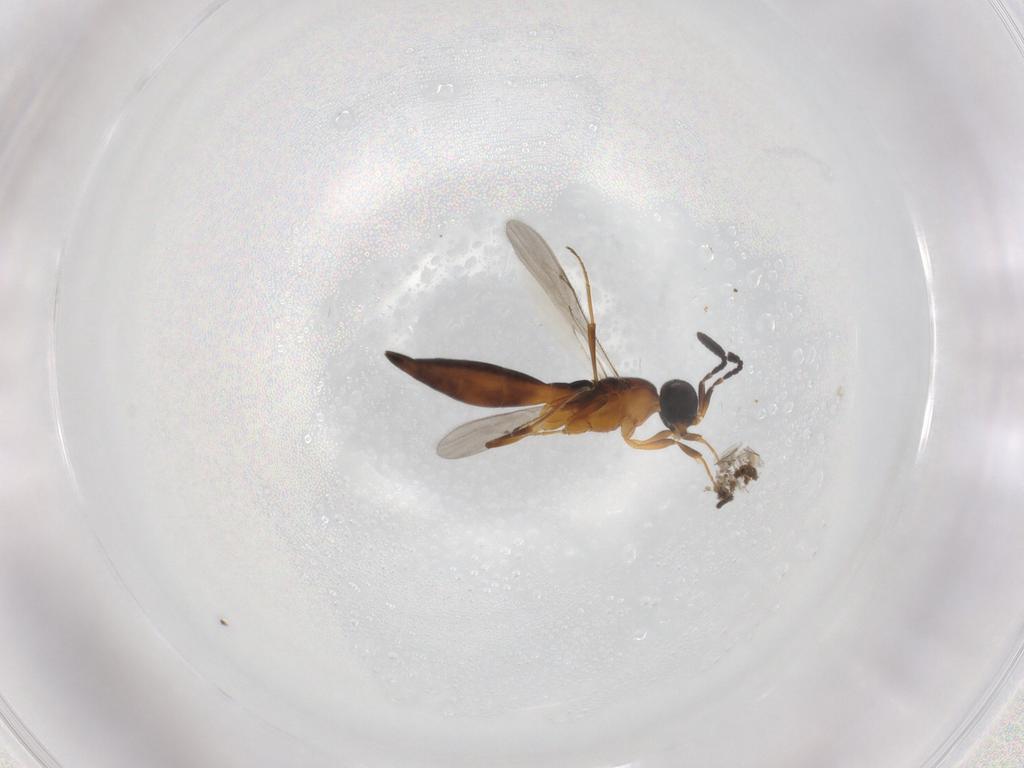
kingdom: Animalia
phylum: Arthropoda
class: Insecta
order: Hymenoptera
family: Scelionidae
